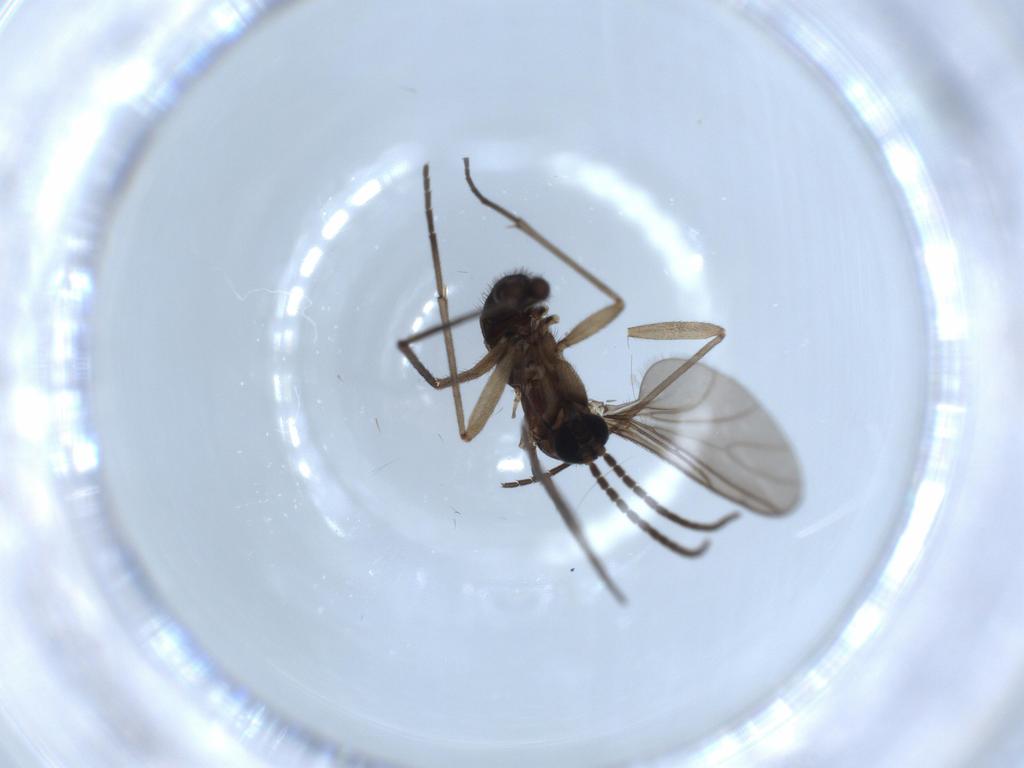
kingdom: Animalia
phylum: Arthropoda
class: Insecta
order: Diptera
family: Sciaridae
